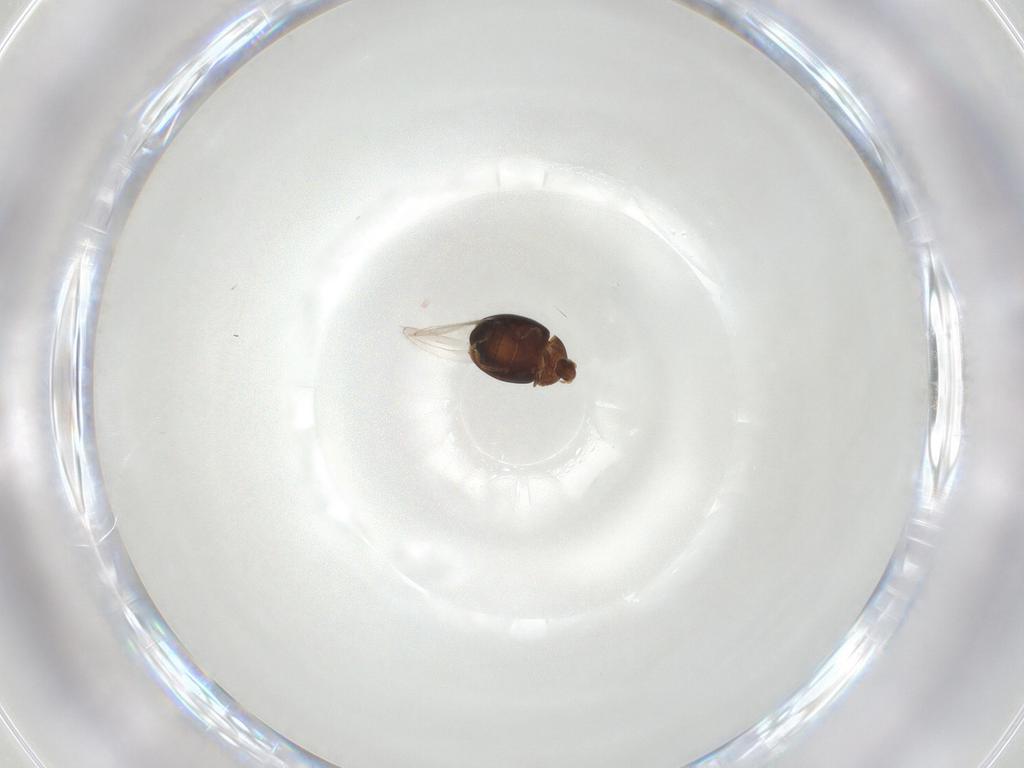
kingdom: Animalia
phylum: Arthropoda
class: Insecta
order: Coleoptera
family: Corylophidae
